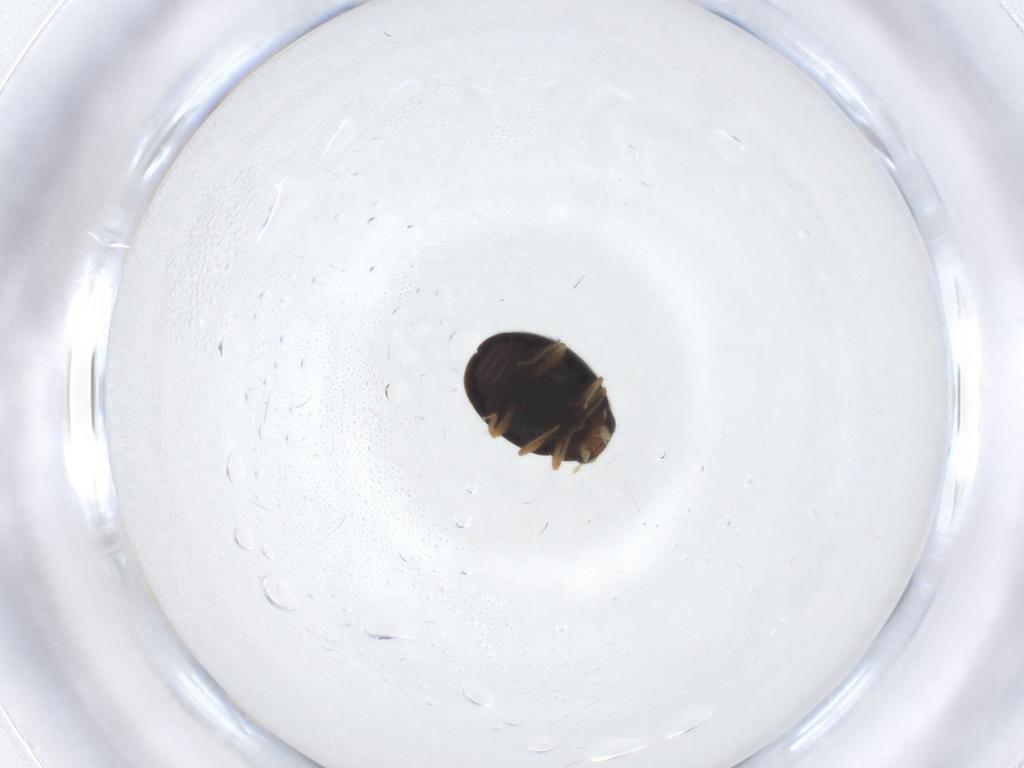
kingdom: Animalia
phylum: Arthropoda
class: Insecta
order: Coleoptera
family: Coccinellidae
